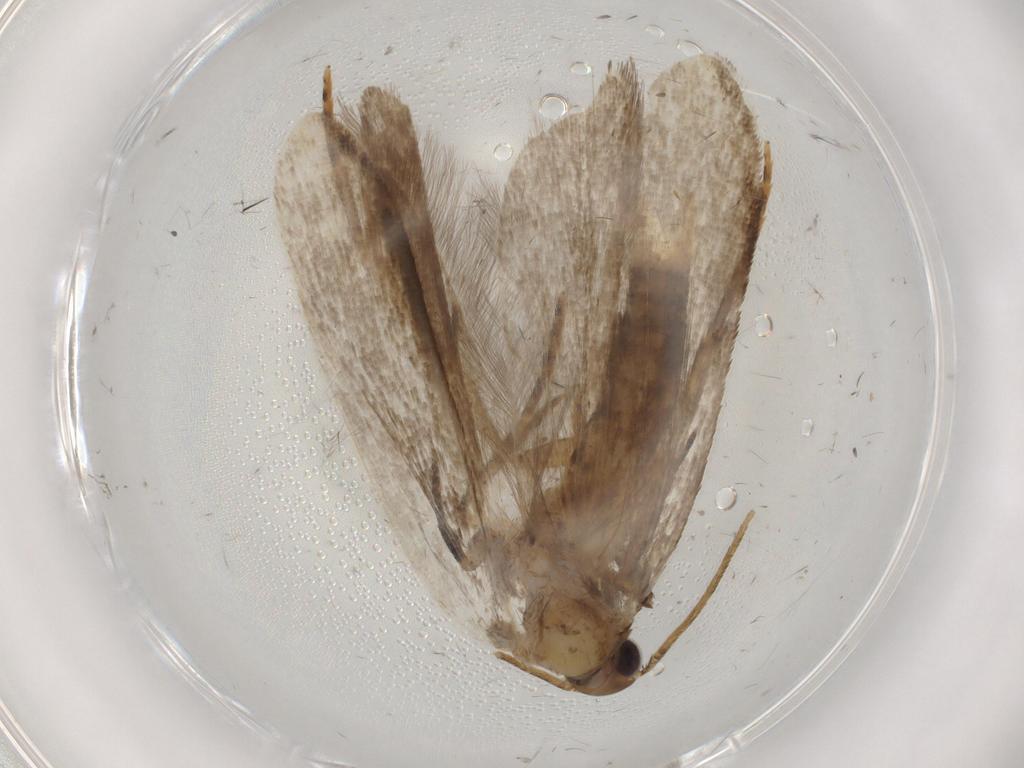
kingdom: Animalia
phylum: Arthropoda
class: Insecta
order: Lepidoptera
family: Gelechiidae
